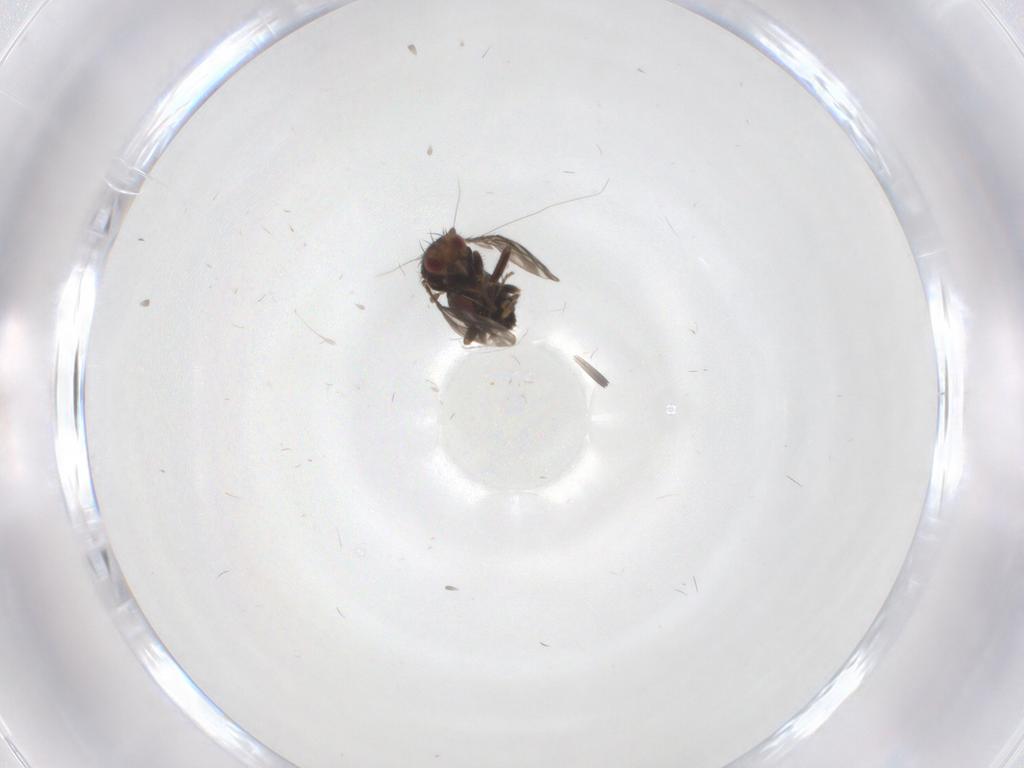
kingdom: Animalia
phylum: Arthropoda
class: Insecta
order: Diptera
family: Sphaeroceridae
